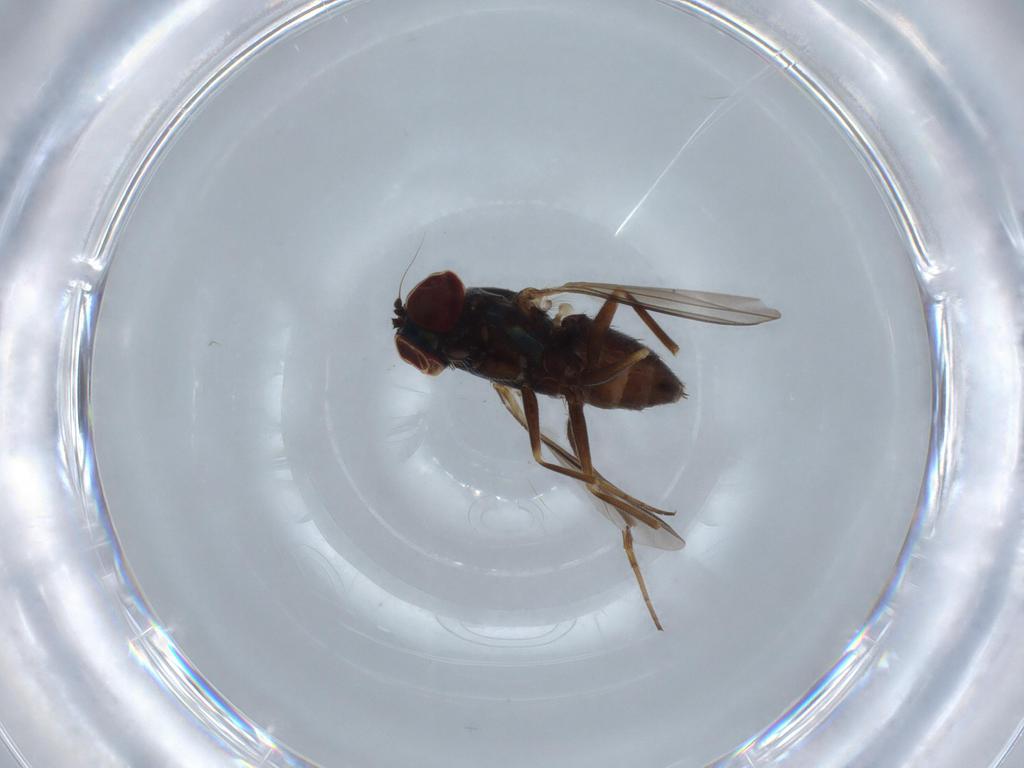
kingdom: Animalia
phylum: Arthropoda
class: Insecta
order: Diptera
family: Dolichopodidae
